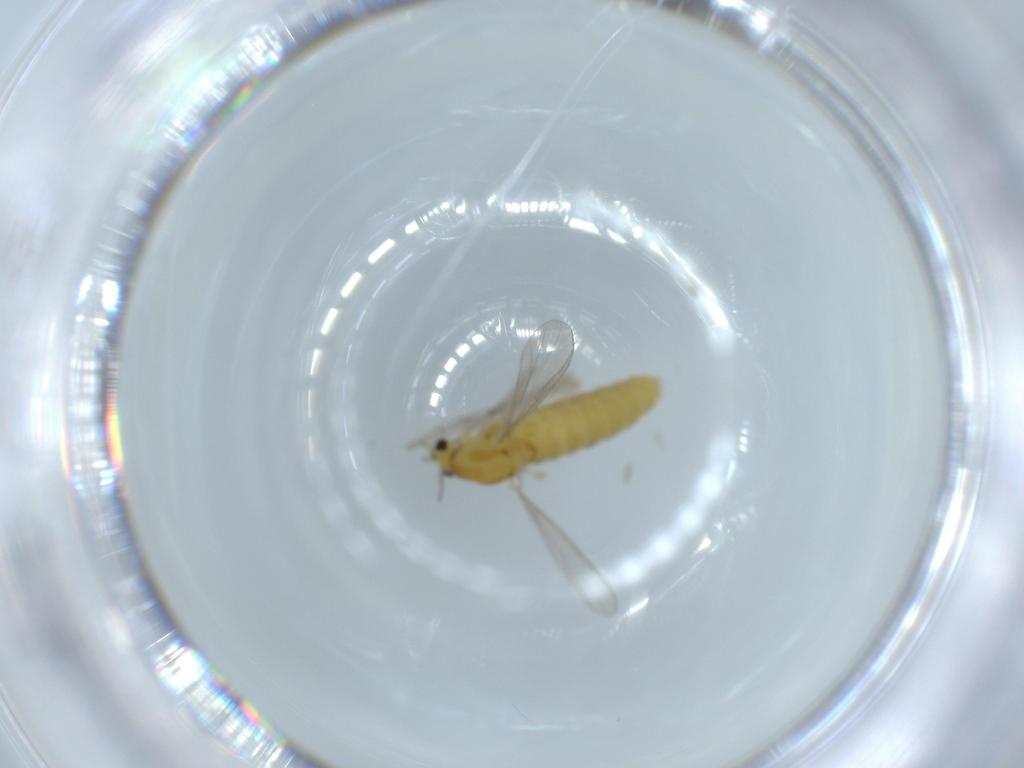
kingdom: Animalia
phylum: Arthropoda
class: Insecta
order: Diptera
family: Chironomidae
